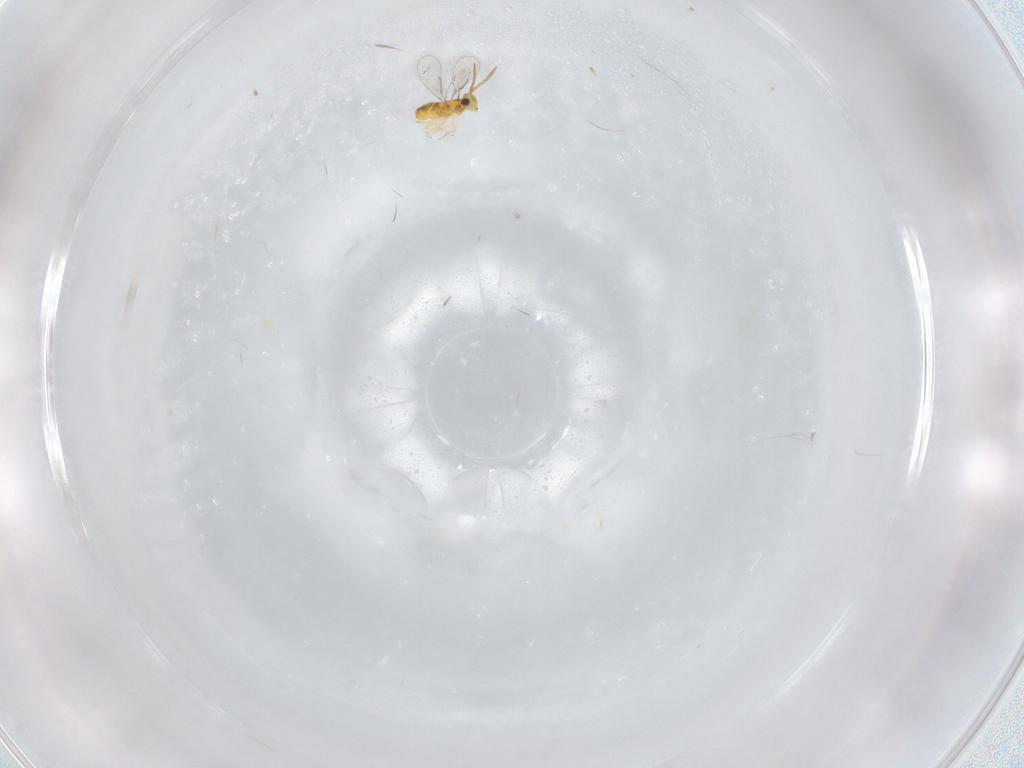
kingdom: Animalia
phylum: Arthropoda
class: Insecta
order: Hymenoptera
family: Aphelinidae
